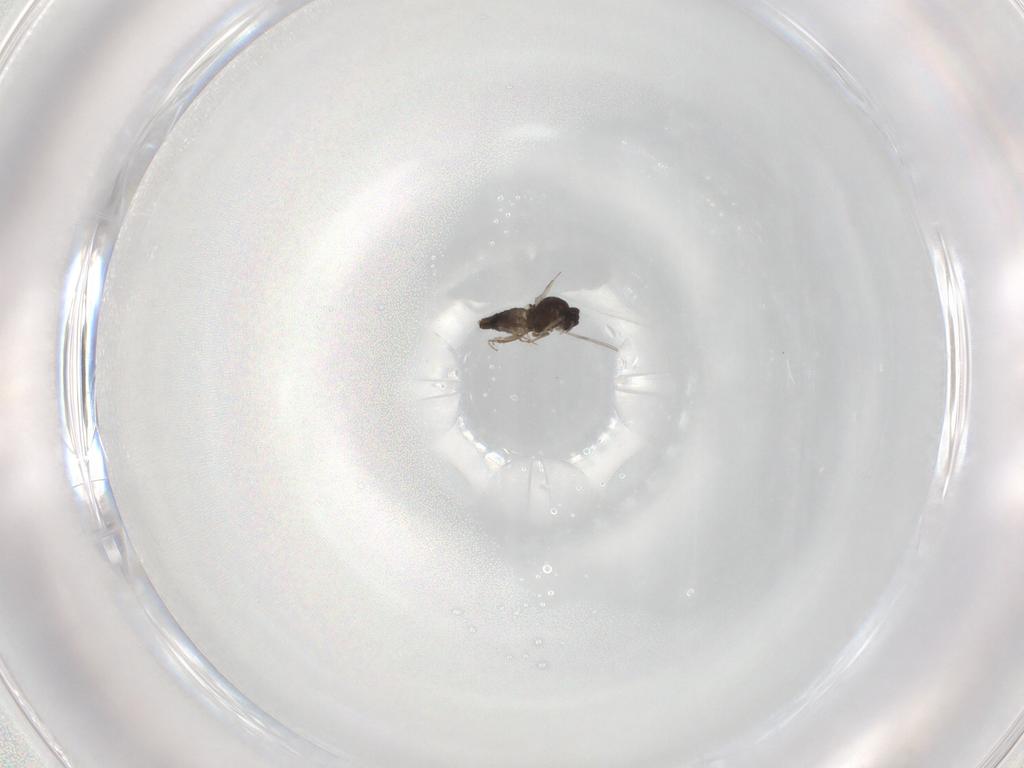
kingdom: Animalia
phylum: Arthropoda
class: Insecta
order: Diptera
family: Ceratopogonidae
